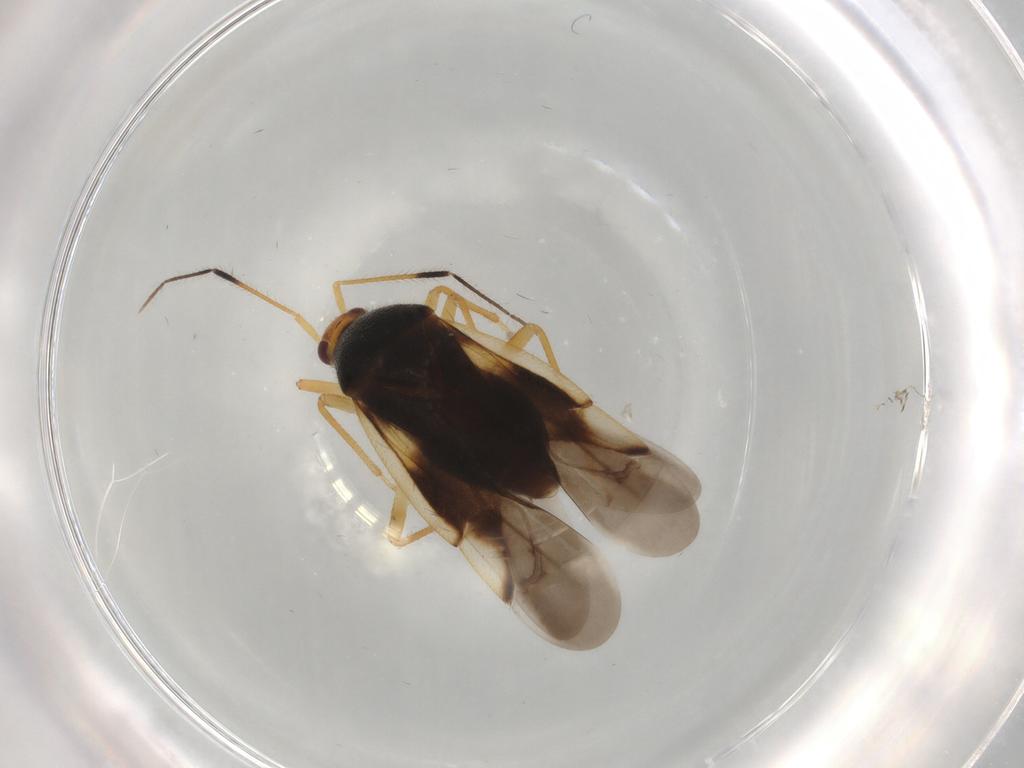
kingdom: Animalia
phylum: Arthropoda
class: Insecta
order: Hemiptera
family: Miridae
